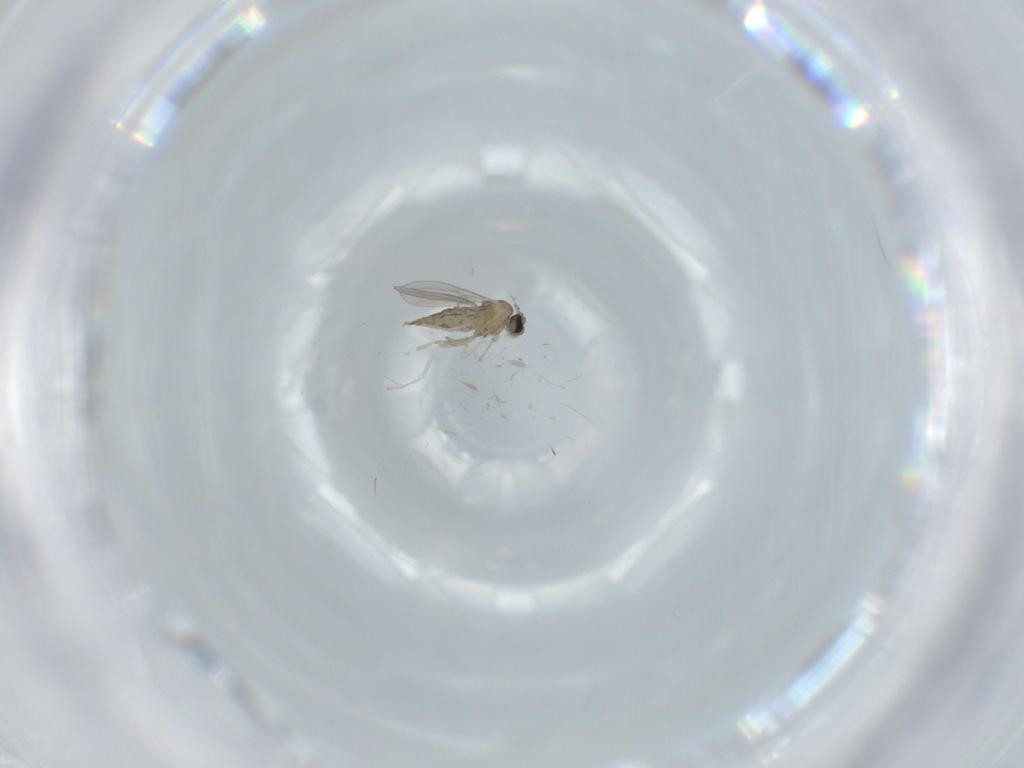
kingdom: Animalia
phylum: Arthropoda
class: Insecta
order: Diptera
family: Cecidomyiidae
